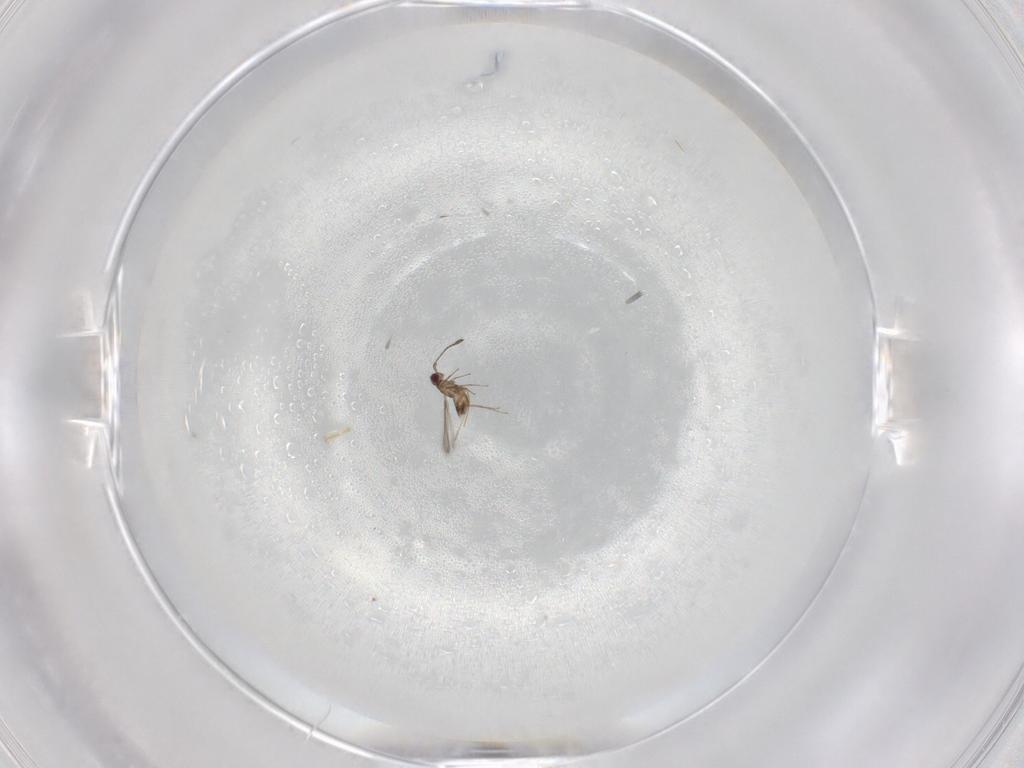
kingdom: Animalia
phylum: Arthropoda
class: Insecta
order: Hymenoptera
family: Mymaridae
